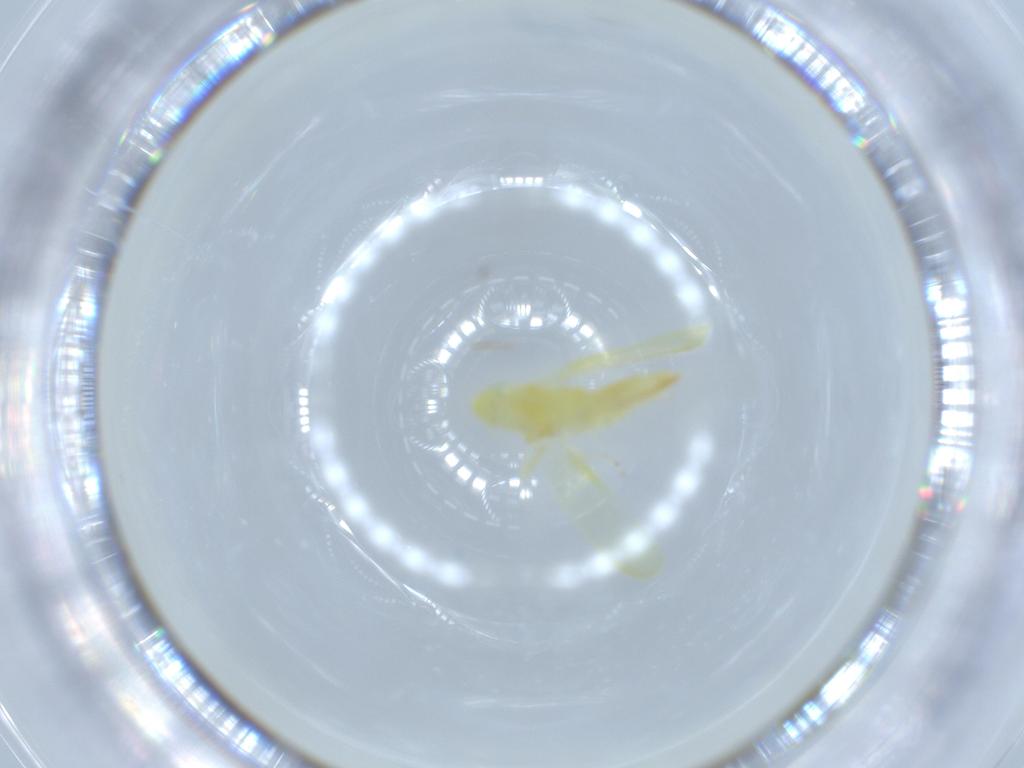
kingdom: Animalia
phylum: Arthropoda
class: Insecta
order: Hemiptera
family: Cicadellidae
